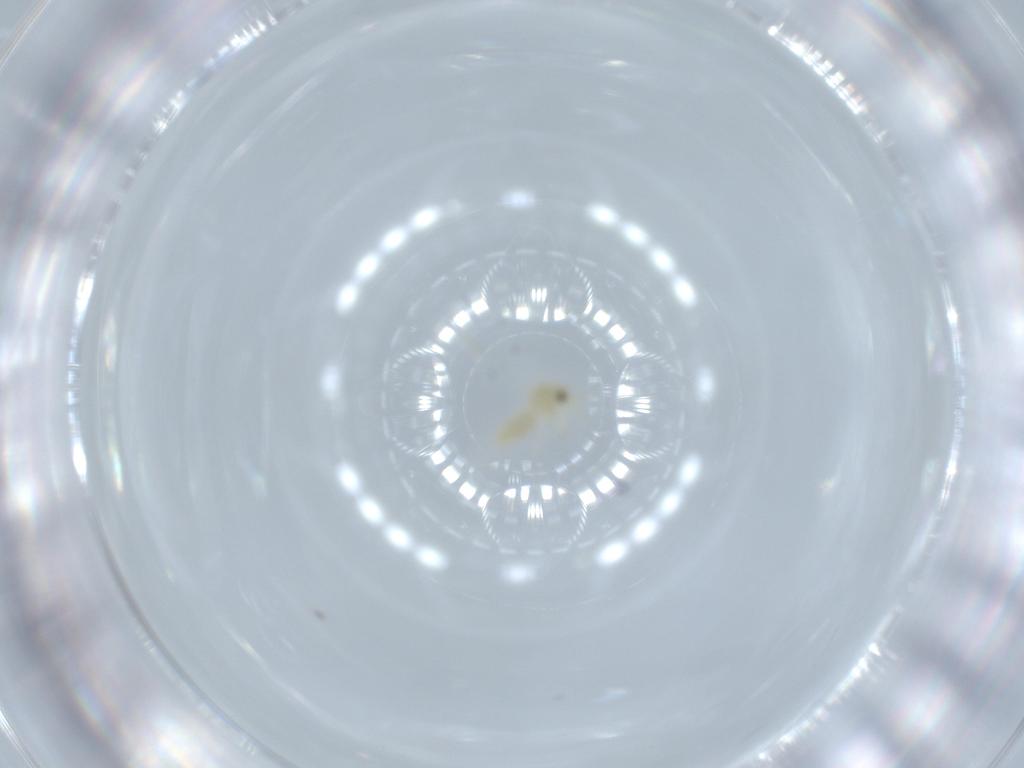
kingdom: Animalia
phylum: Arthropoda
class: Insecta
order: Hemiptera
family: Aleyrodidae
